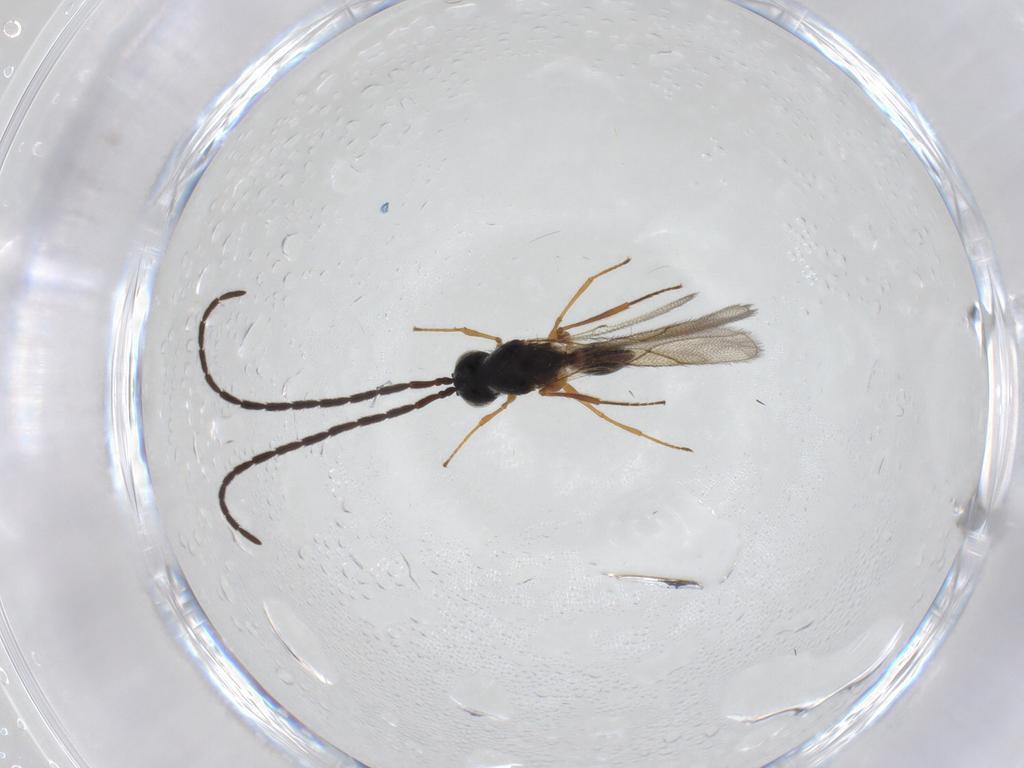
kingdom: Animalia
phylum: Arthropoda
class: Insecta
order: Hymenoptera
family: Figitidae
